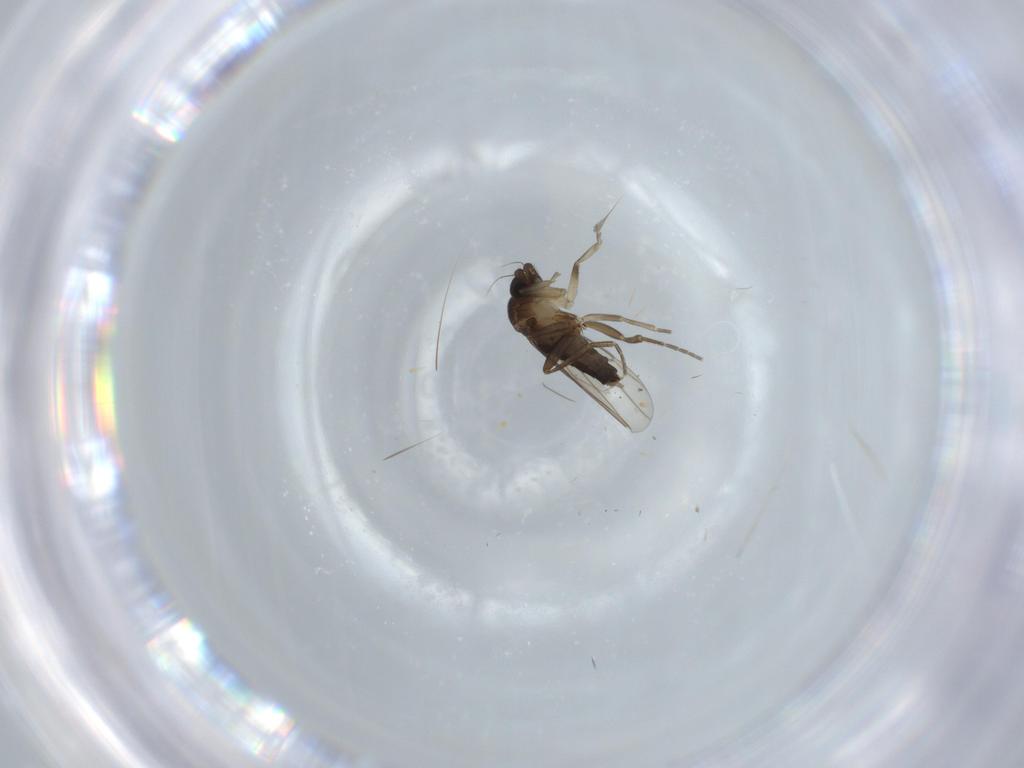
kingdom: Animalia
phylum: Arthropoda
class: Insecta
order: Diptera
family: Phoridae
